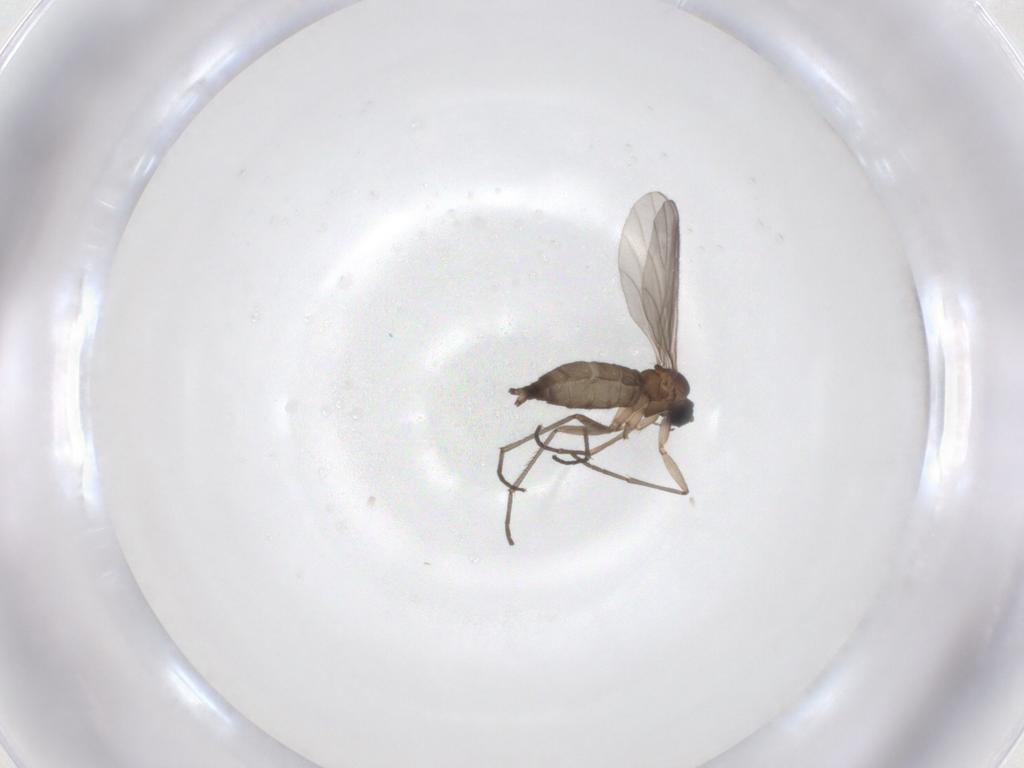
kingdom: Animalia
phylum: Arthropoda
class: Insecta
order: Diptera
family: Sciaridae
